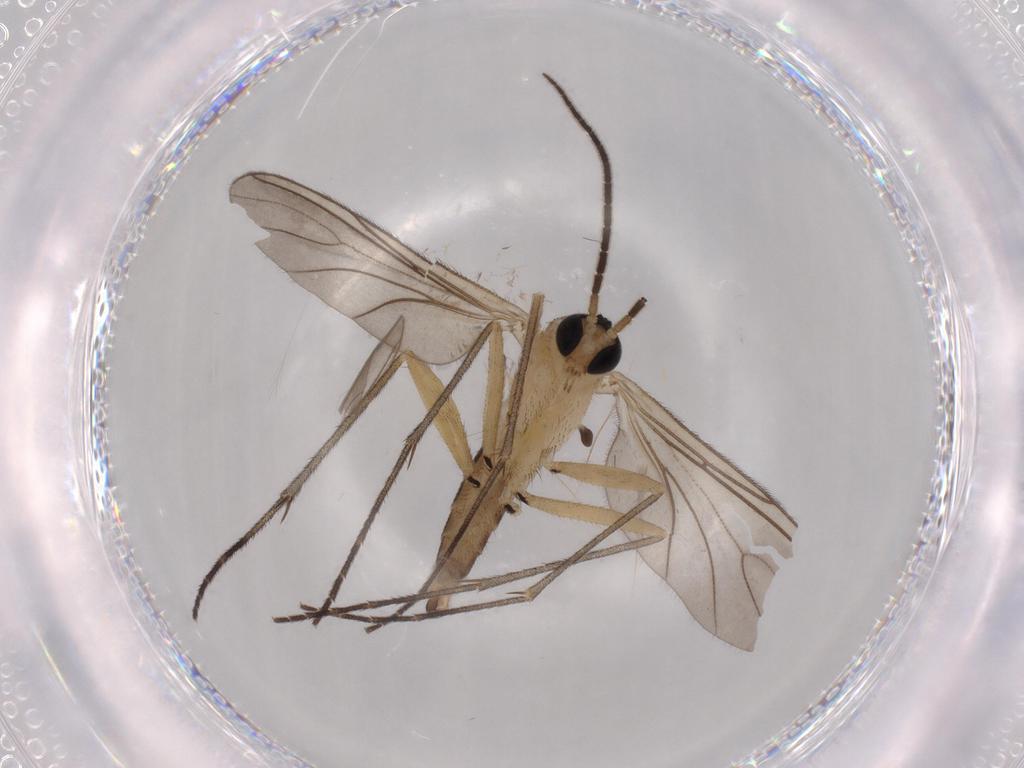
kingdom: Animalia
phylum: Arthropoda
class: Insecta
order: Diptera
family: Sciaridae
